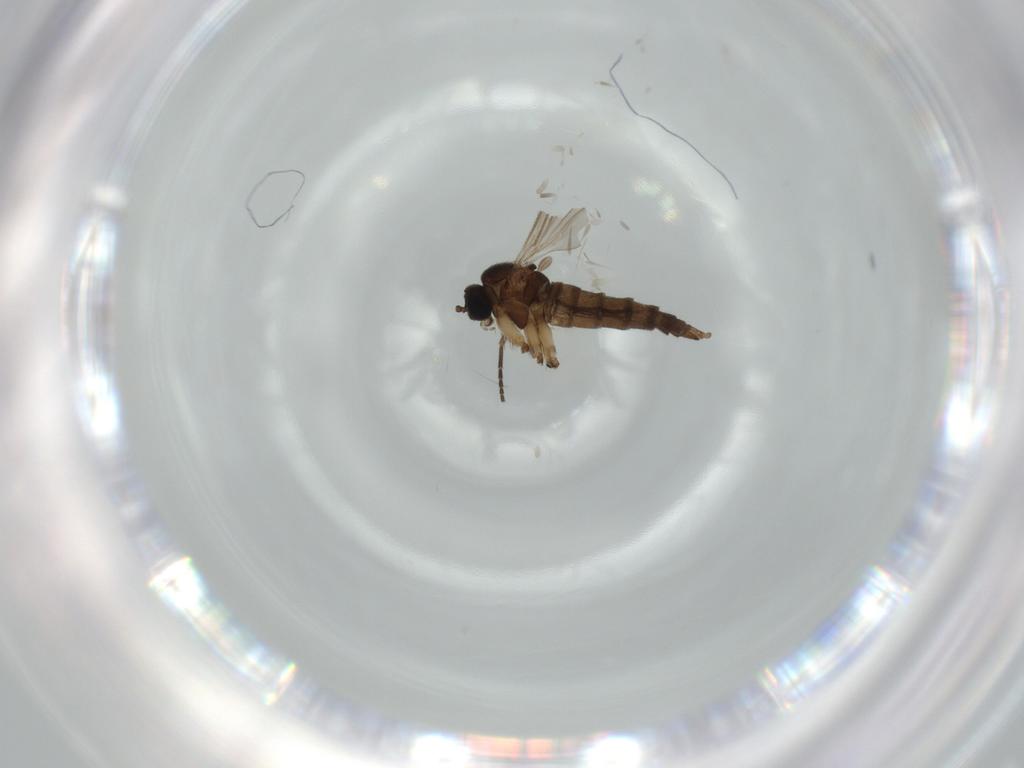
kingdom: Animalia
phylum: Arthropoda
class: Insecta
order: Diptera
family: Sciaridae
